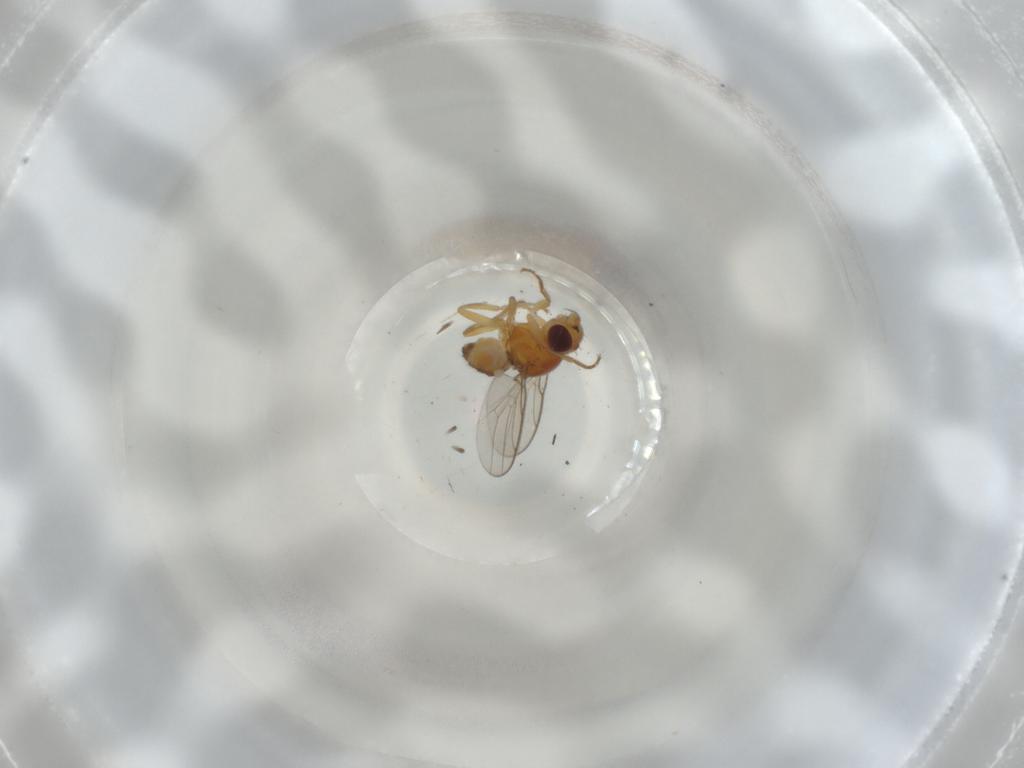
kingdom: Animalia
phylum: Arthropoda
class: Insecta
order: Diptera
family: Chloropidae
